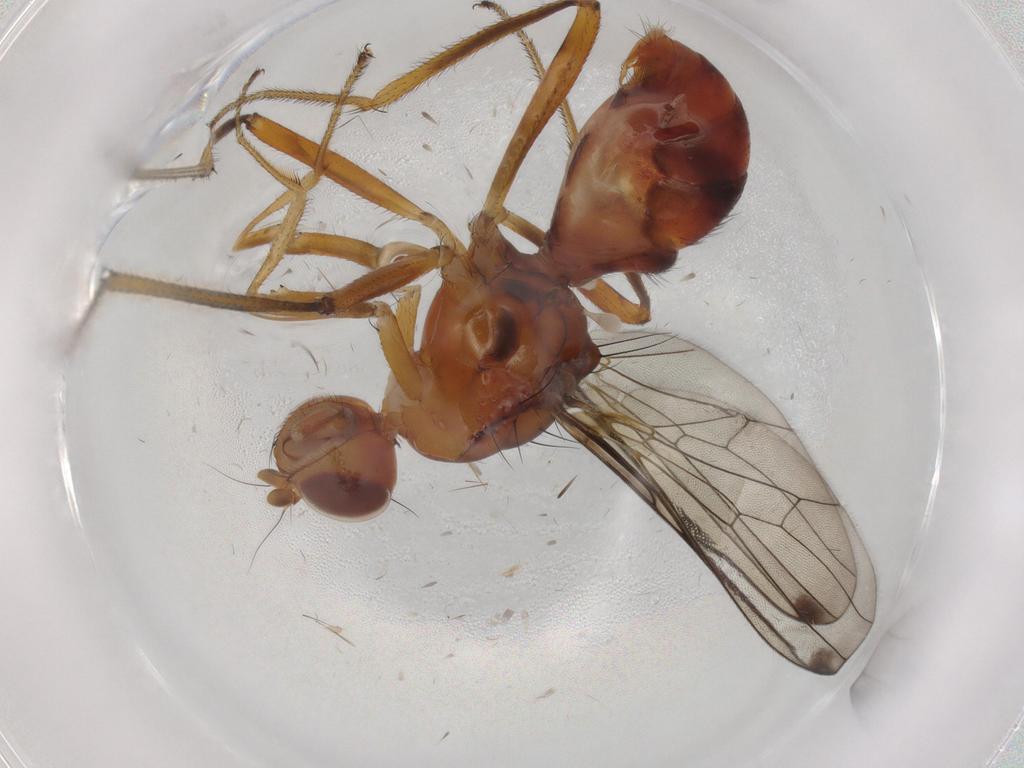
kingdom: Animalia
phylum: Arthropoda
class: Insecta
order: Diptera
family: Sepsidae
